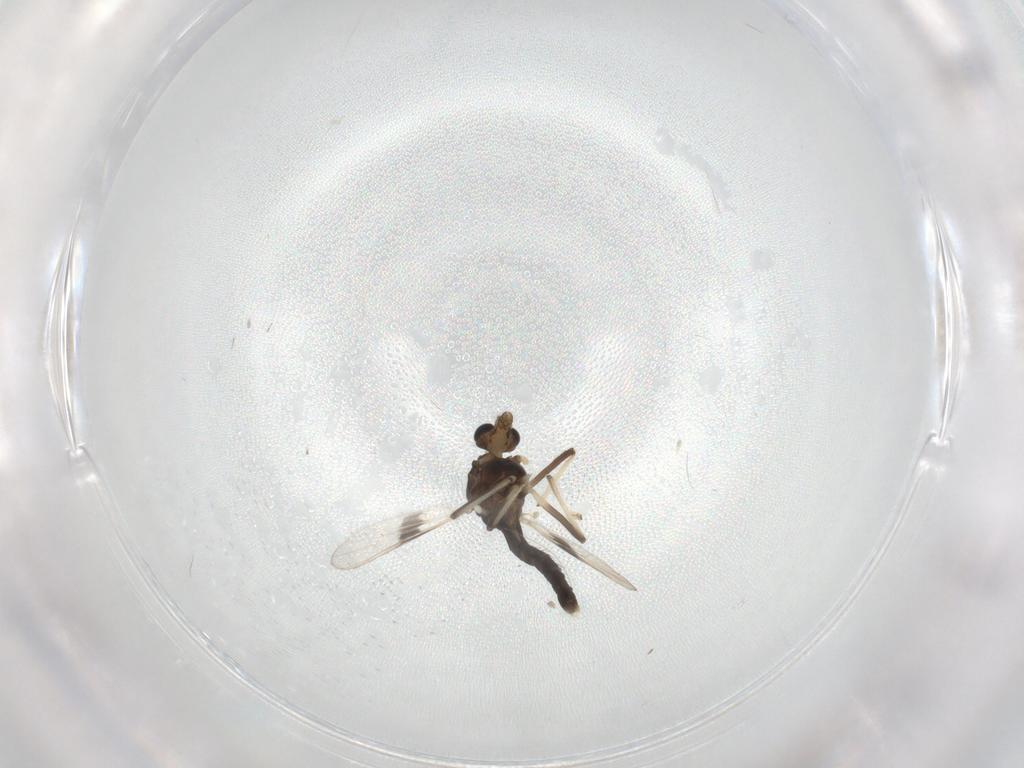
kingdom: Animalia
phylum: Arthropoda
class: Insecta
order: Diptera
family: Chironomidae
